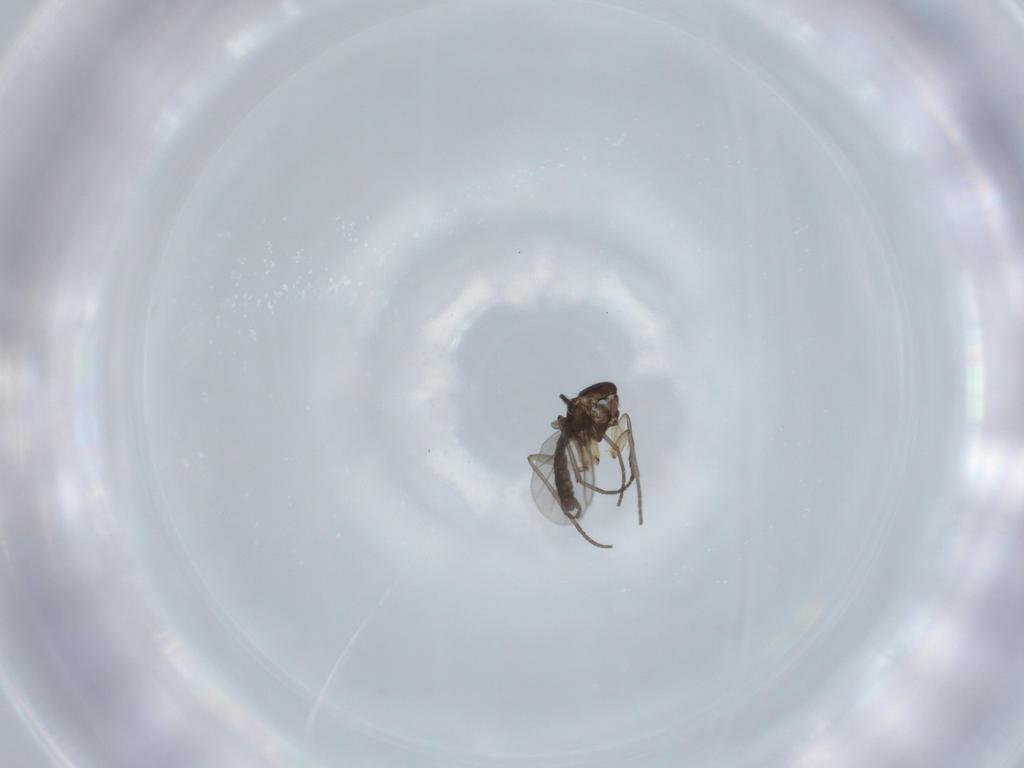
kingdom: Animalia
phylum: Arthropoda
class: Insecta
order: Diptera
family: Sciaridae
